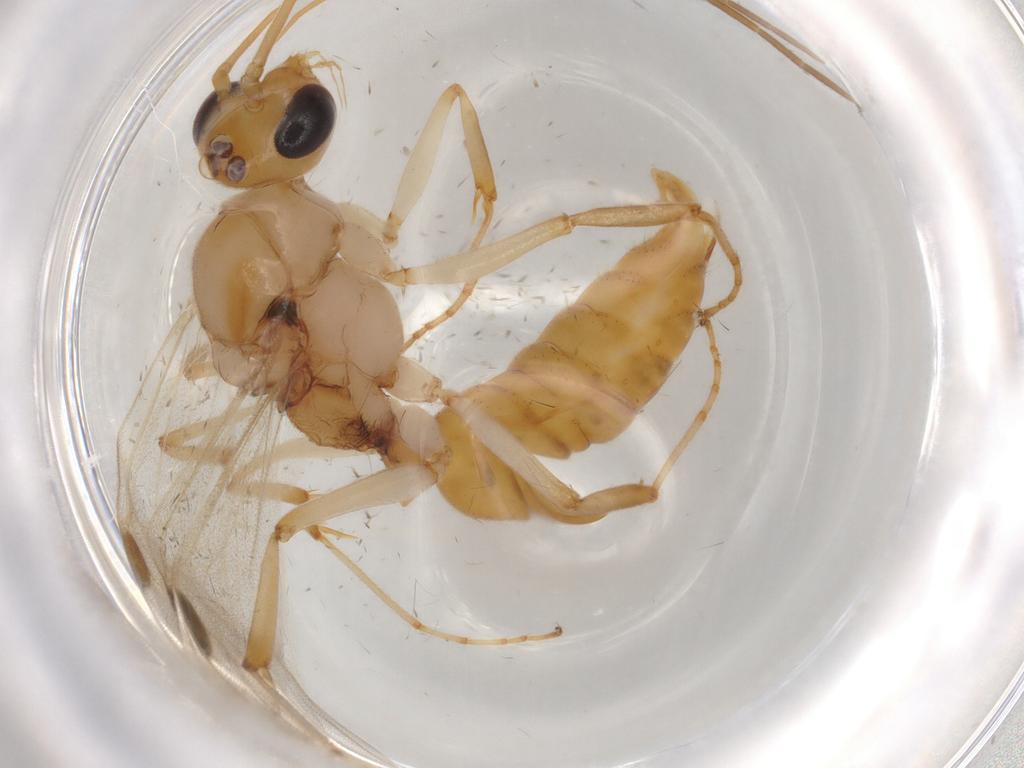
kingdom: Animalia
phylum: Arthropoda
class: Insecta
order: Hymenoptera
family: Formicidae
